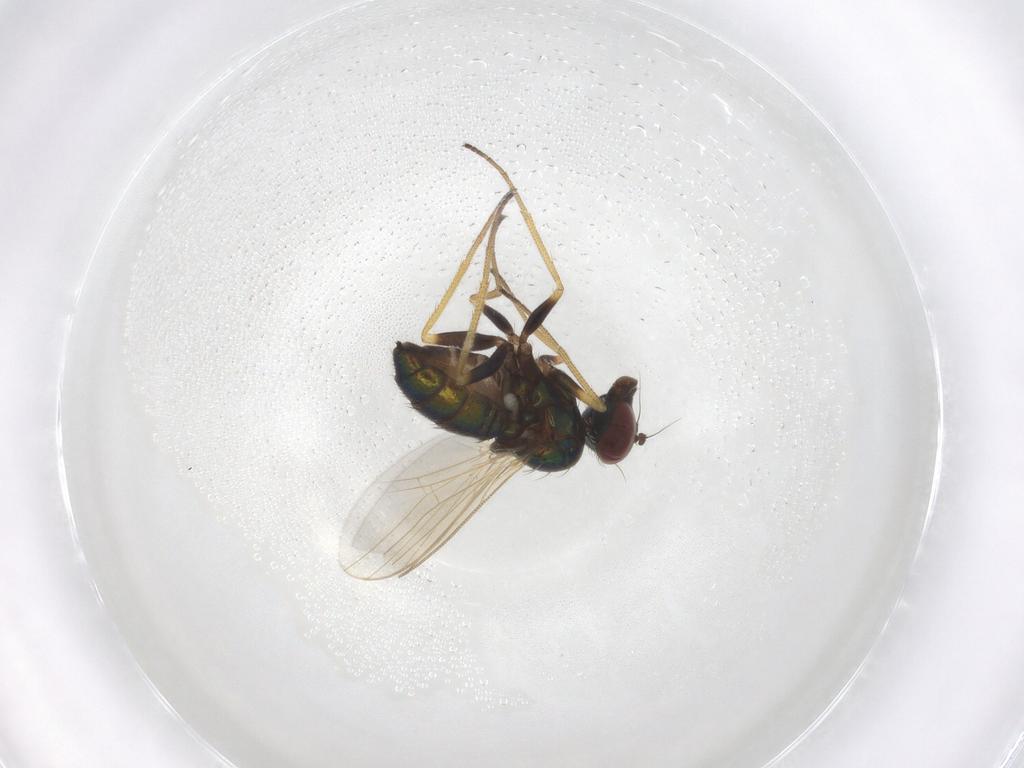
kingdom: Animalia
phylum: Arthropoda
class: Insecta
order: Diptera
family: Dolichopodidae
